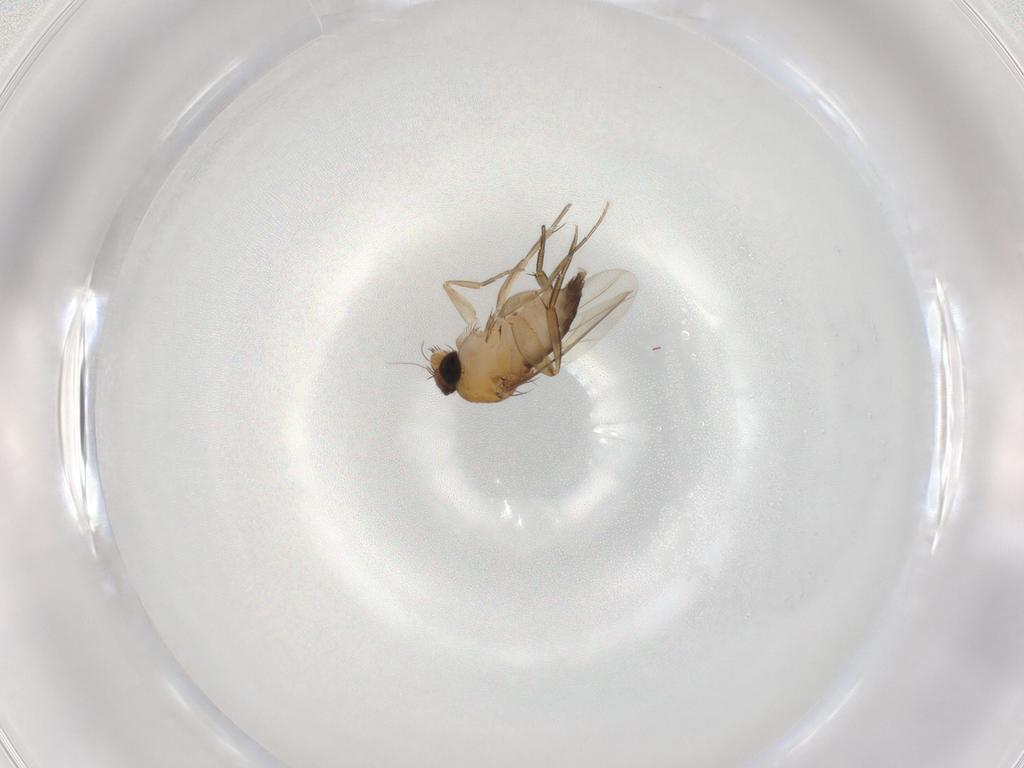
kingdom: Animalia
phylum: Arthropoda
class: Insecta
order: Diptera
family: Phoridae
